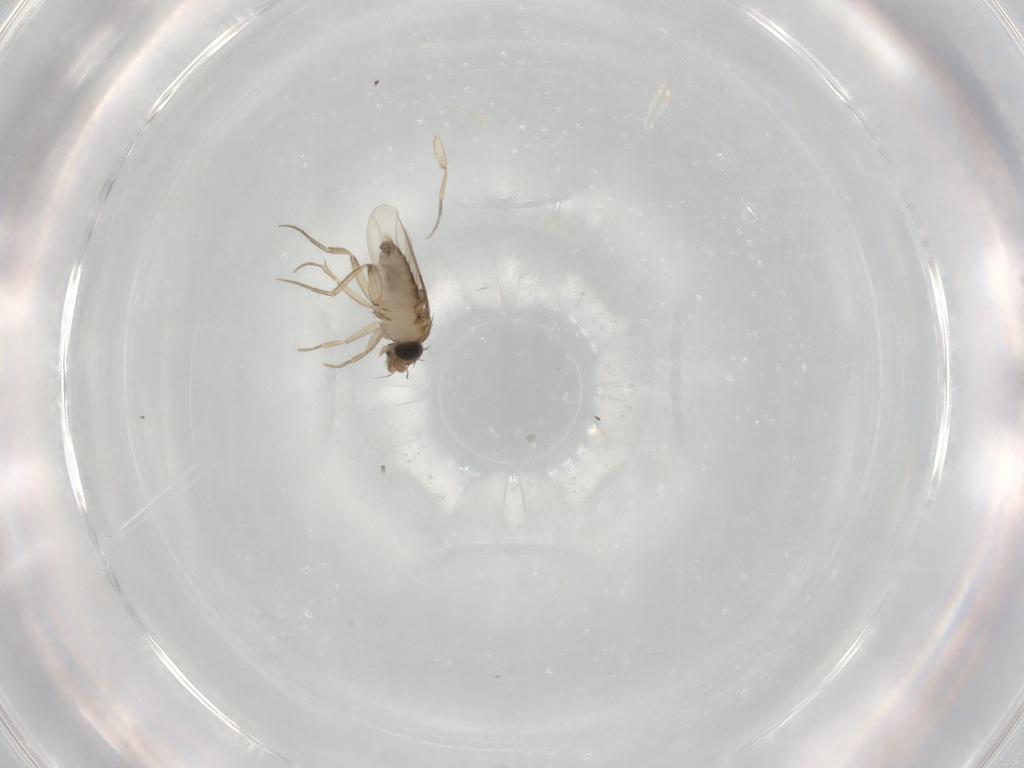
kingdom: Animalia
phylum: Arthropoda
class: Insecta
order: Diptera
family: Phoridae
